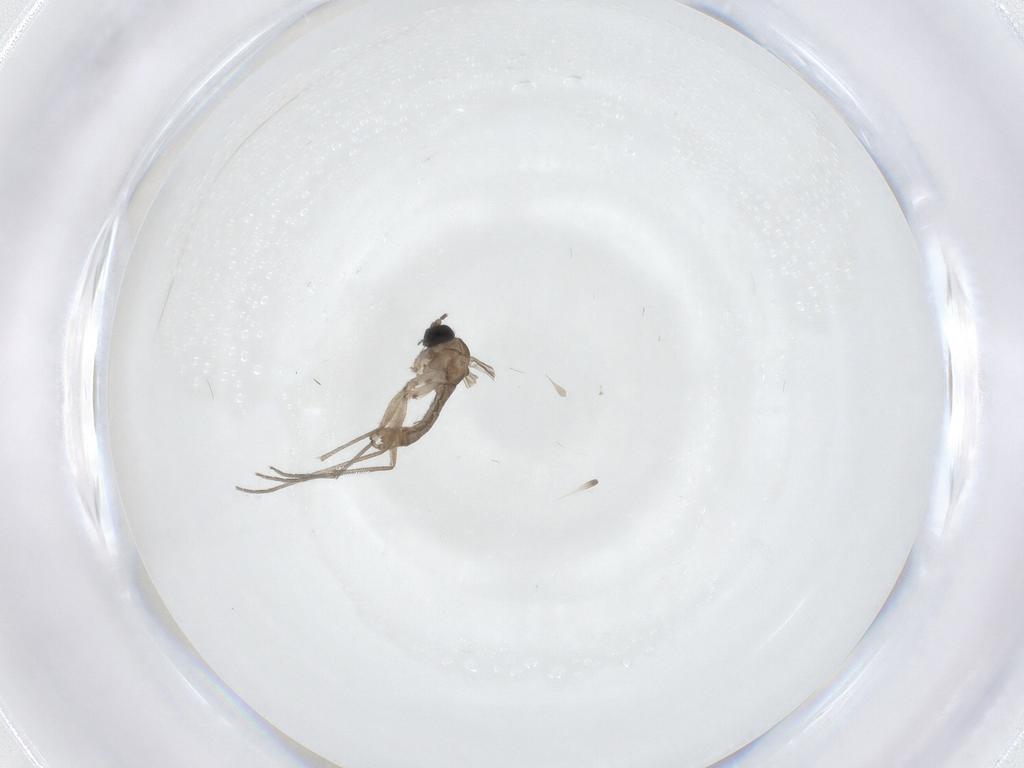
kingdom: Animalia
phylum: Arthropoda
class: Insecta
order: Diptera
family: Sciaridae
